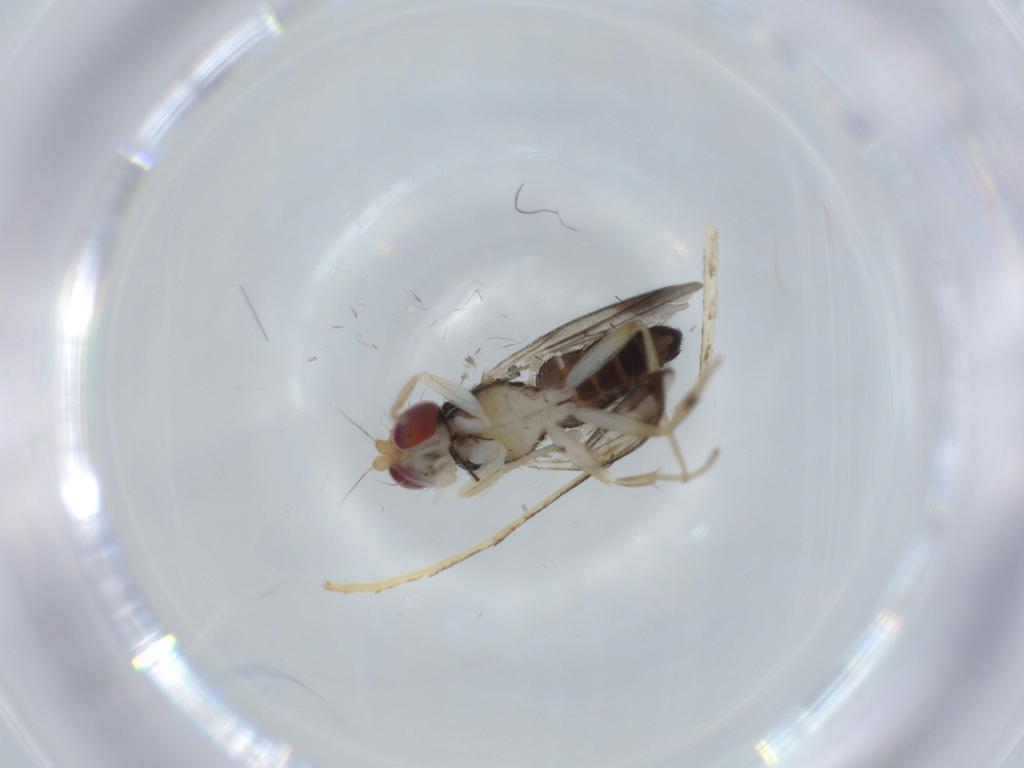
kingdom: Animalia
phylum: Arthropoda
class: Insecta
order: Diptera
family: Clusiidae
